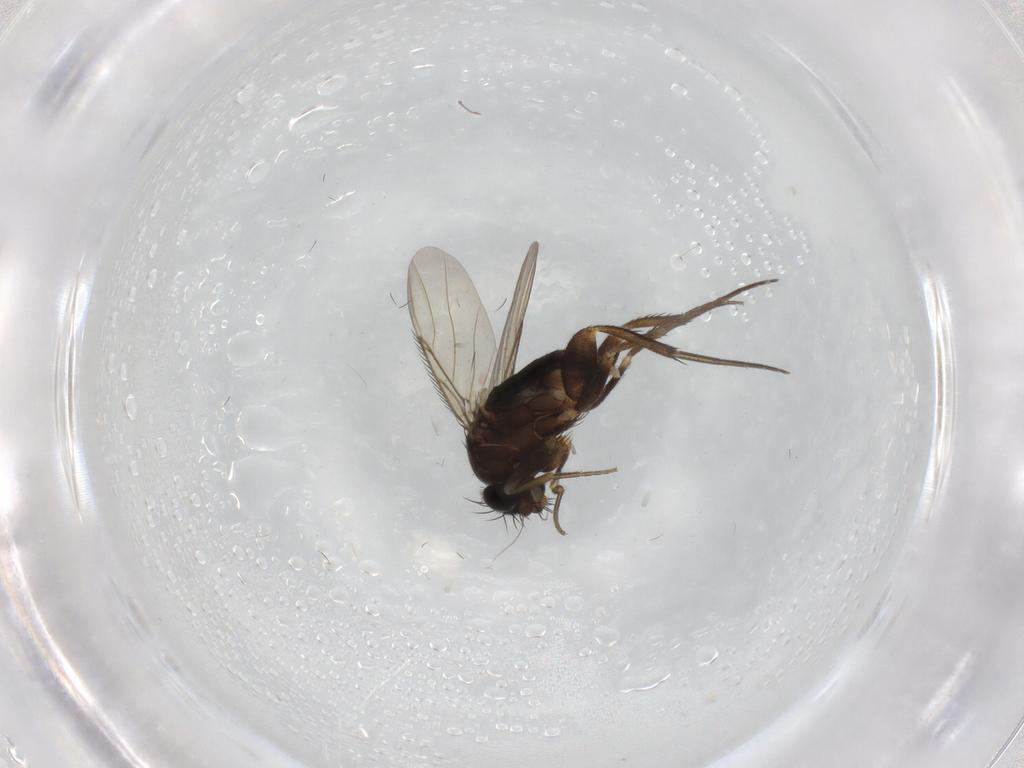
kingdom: Animalia
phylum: Arthropoda
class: Insecta
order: Diptera
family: Phoridae
